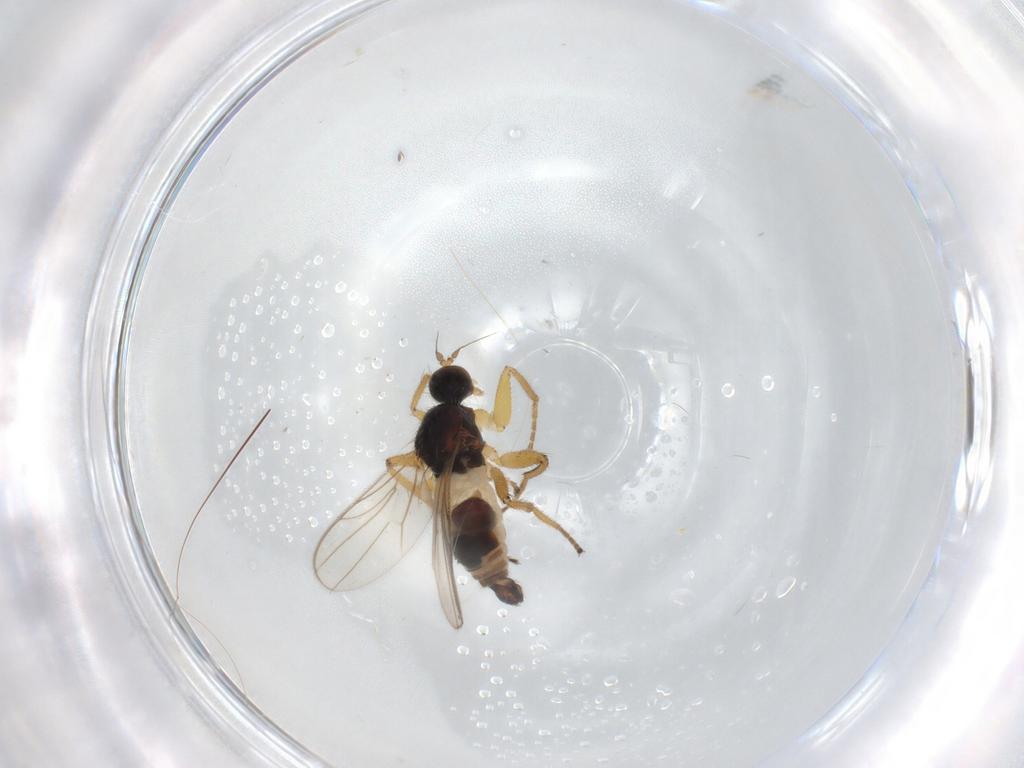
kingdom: Animalia
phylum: Arthropoda
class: Insecta
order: Diptera
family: Hybotidae
